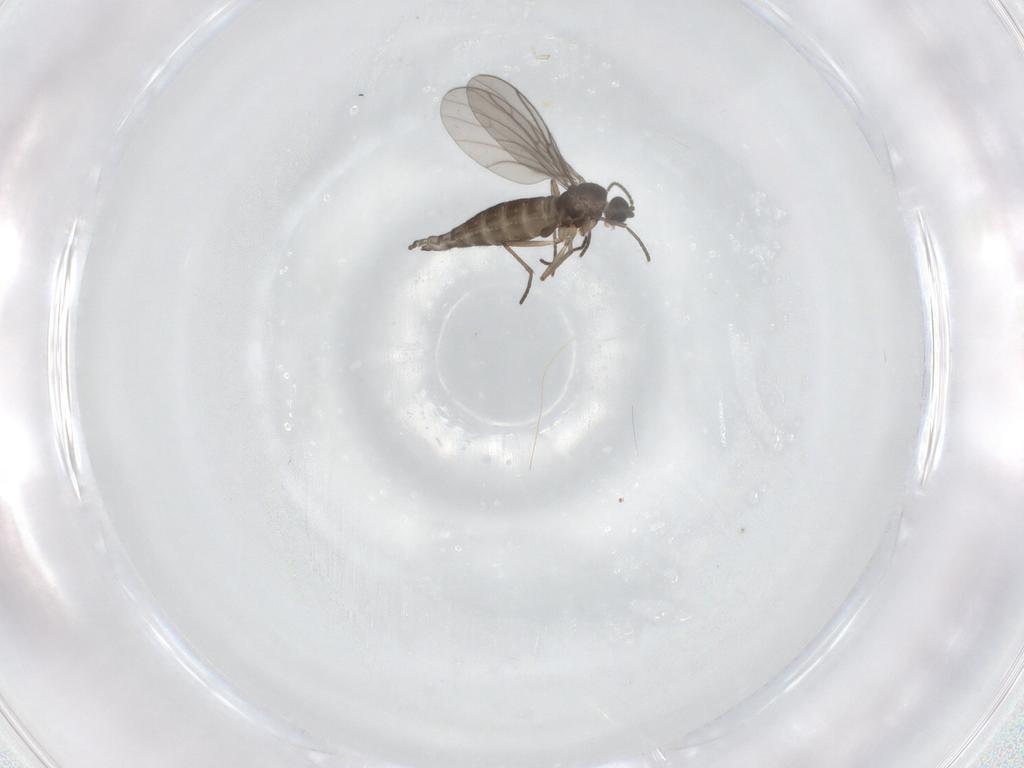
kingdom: Animalia
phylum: Arthropoda
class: Insecta
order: Diptera
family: Sciaridae
